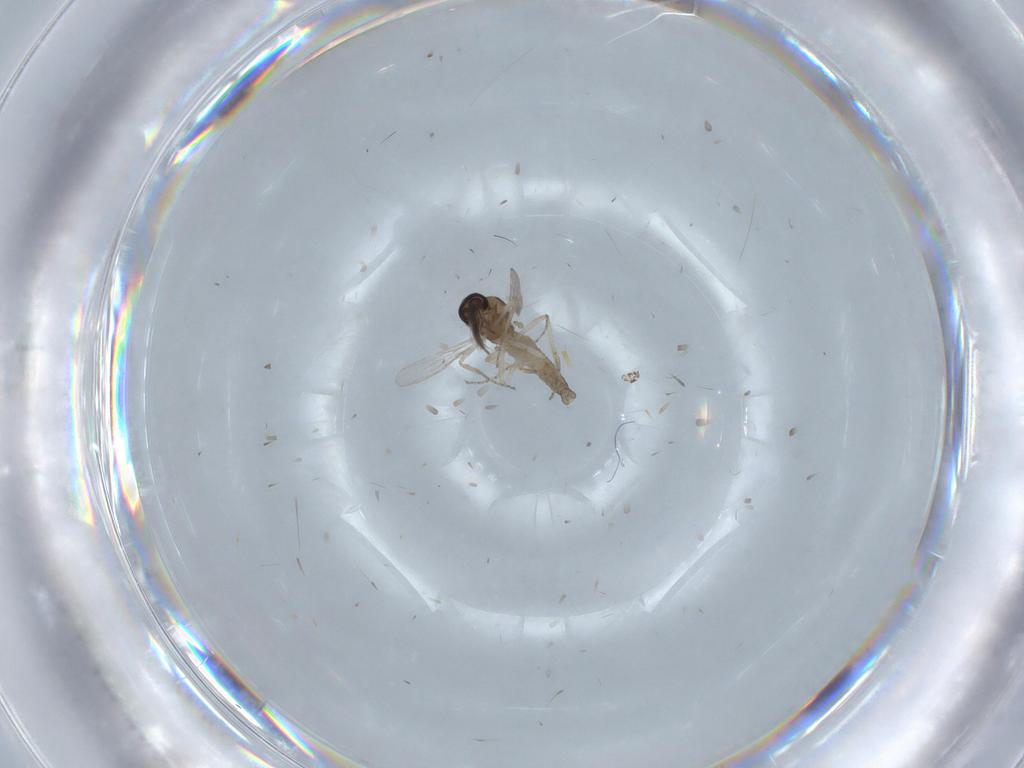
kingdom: Animalia
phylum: Arthropoda
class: Insecta
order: Diptera
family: Ceratopogonidae
